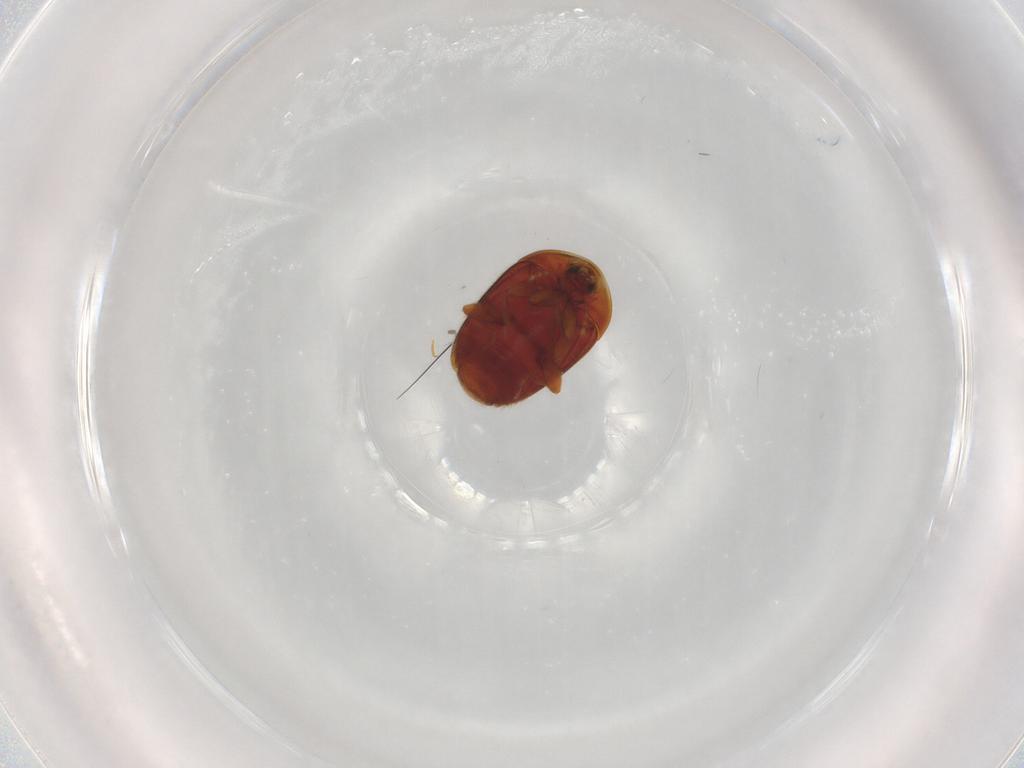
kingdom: Animalia
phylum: Arthropoda
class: Insecta
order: Coleoptera
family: Corylophidae
